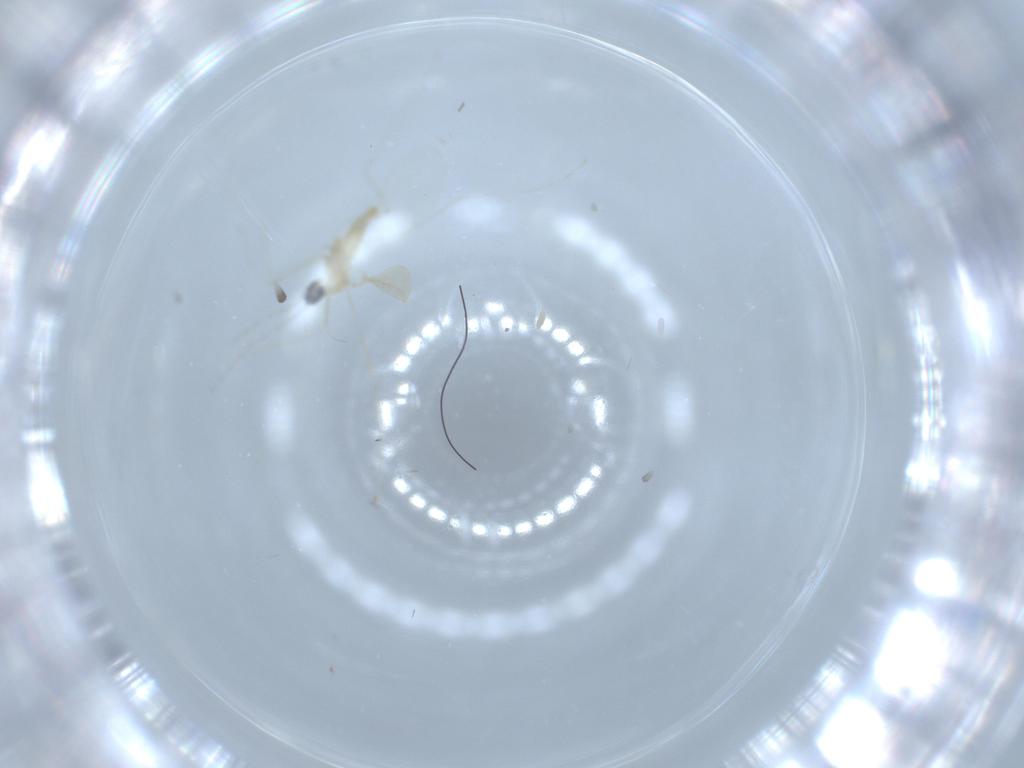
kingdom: Animalia
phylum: Arthropoda
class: Insecta
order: Diptera
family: Cecidomyiidae
